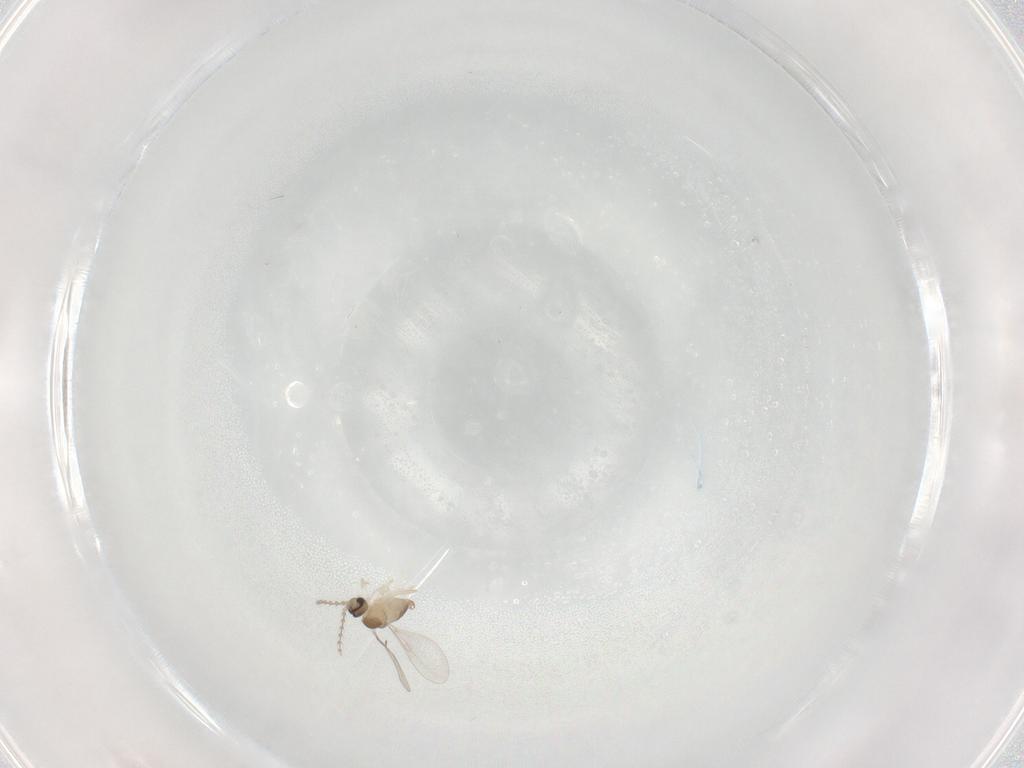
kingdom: Animalia
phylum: Arthropoda
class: Insecta
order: Diptera
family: Cecidomyiidae
